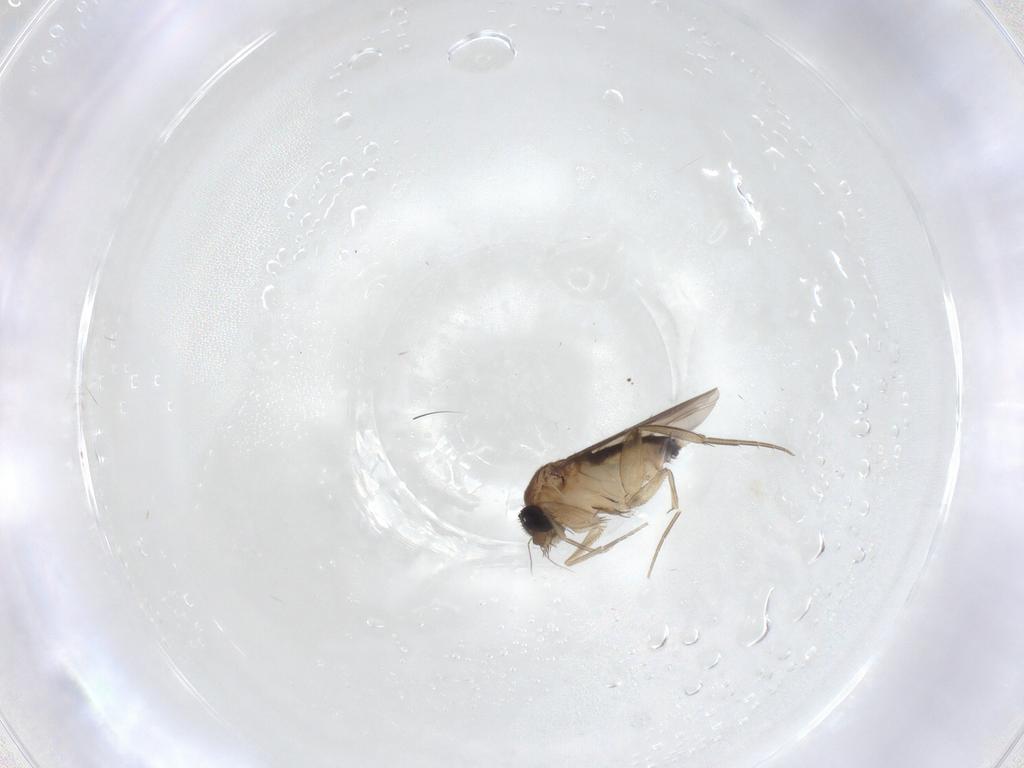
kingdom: Animalia
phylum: Arthropoda
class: Insecta
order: Diptera
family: Phoridae
